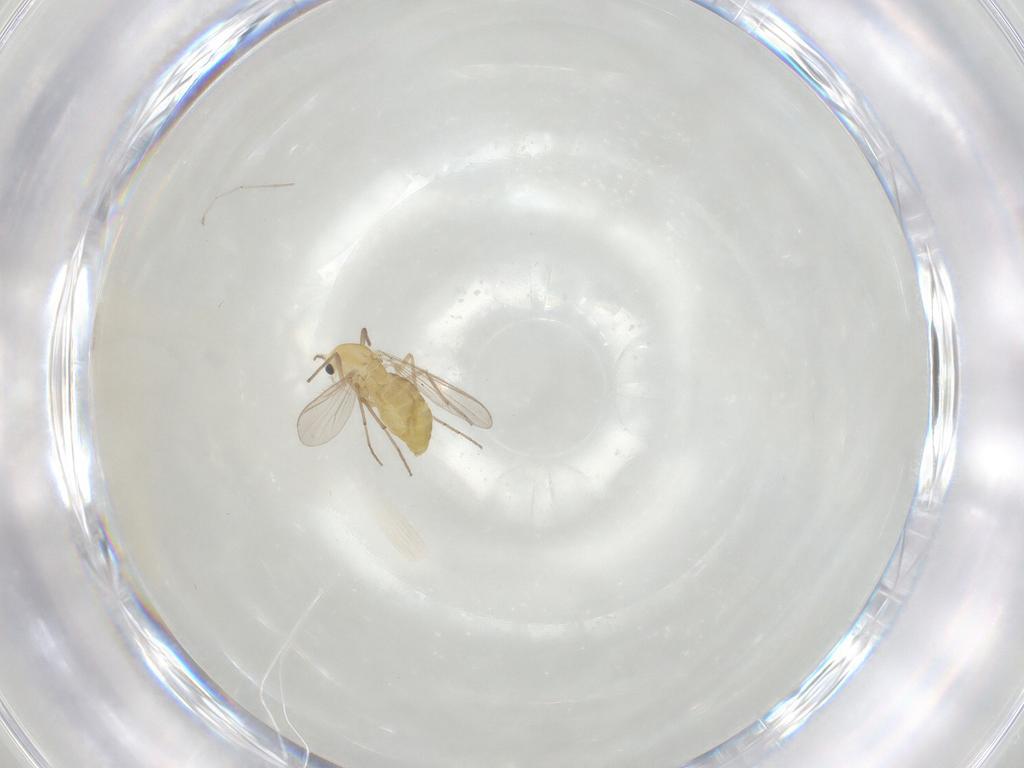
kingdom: Animalia
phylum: Arthropoda
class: Insecta
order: Diptera
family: Chironomidae
